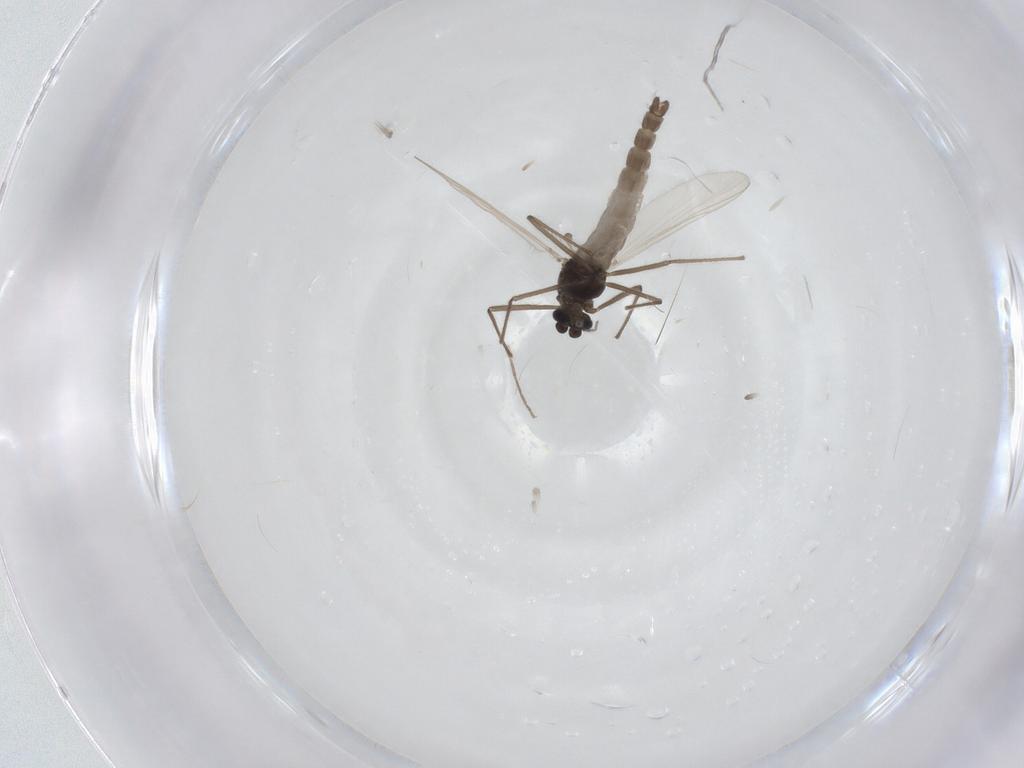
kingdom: Animalia
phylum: Arthropoda
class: Insecta
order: Diptera
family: Chironomidae
